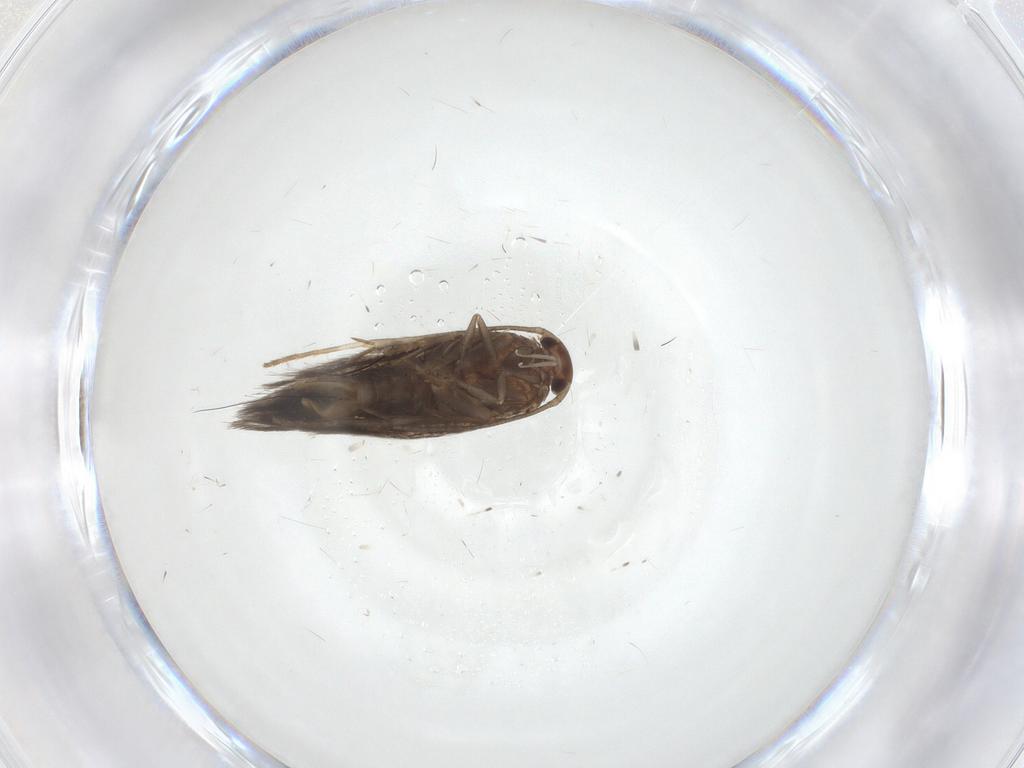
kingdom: Animalia
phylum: Arthropoda
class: Insecta
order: Lepidoptera
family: Elachistidae
